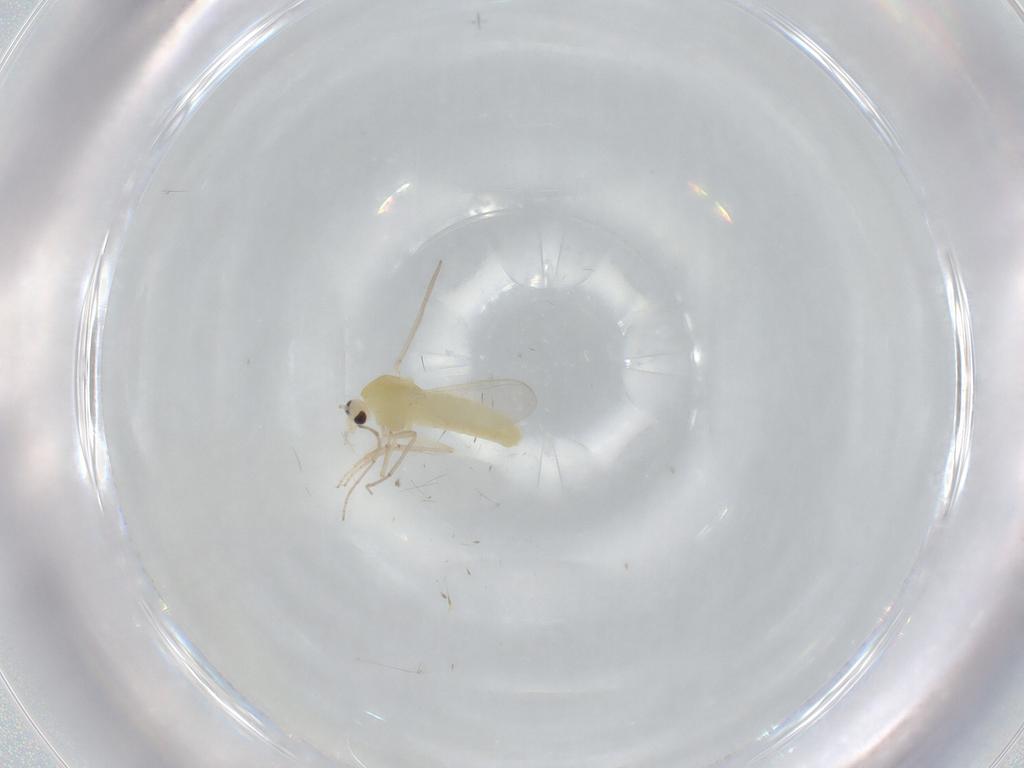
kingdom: Animalia
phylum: Arthropoda
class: Insecta
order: Diptera
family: Chironomidae
